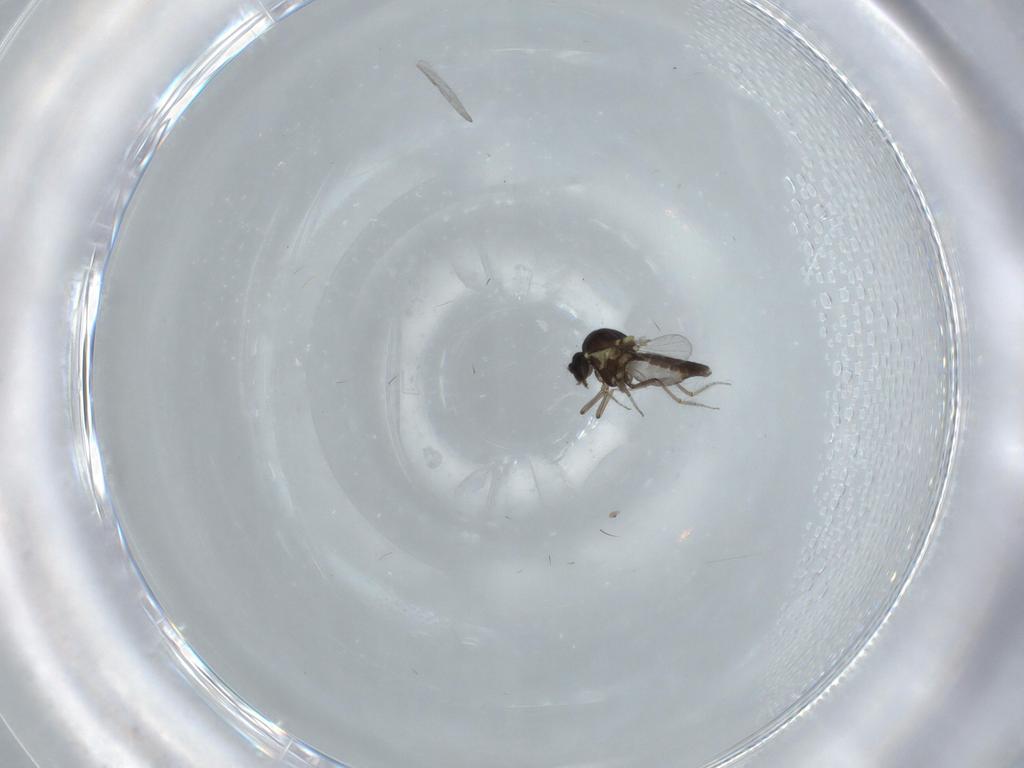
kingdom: Animalia
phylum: Arthropoda
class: Insecta
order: Diptera
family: Phoridae
